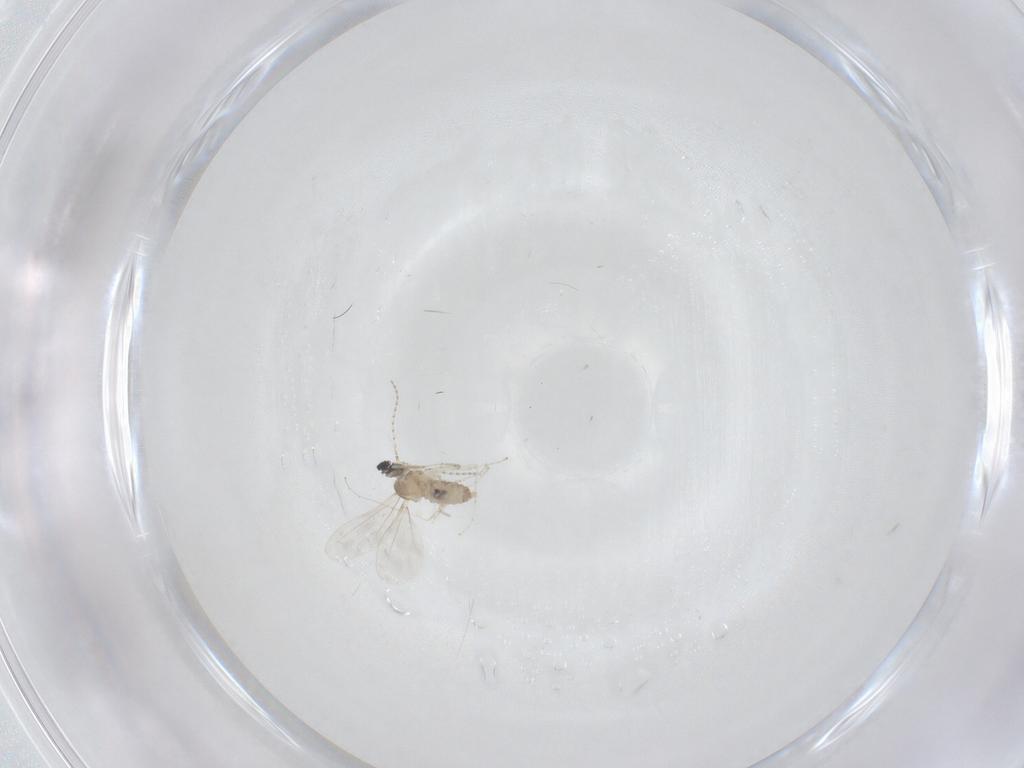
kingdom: Animalia
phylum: Arthropoda
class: Insecta
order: Diptera
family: Cecidomyiidae
